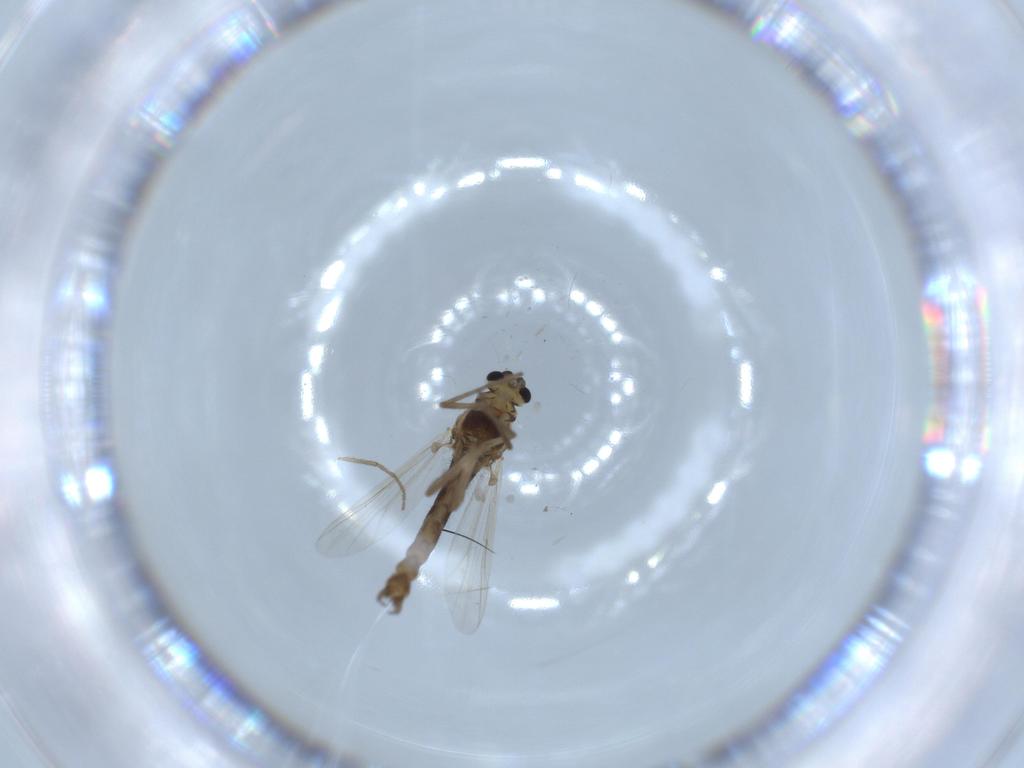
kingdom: Animalia
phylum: Arthropoda
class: Insecta
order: Diptera
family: Chironomidae
